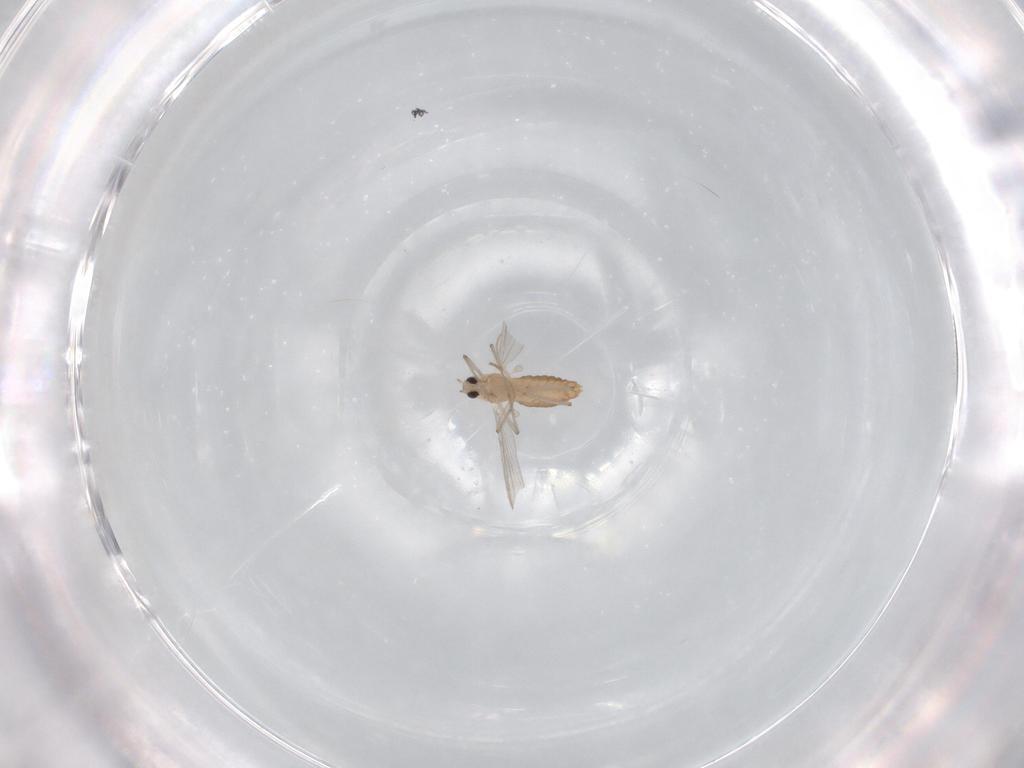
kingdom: Animalia
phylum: Arthropoda
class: Insecta
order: Diptera
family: Chironomidae
